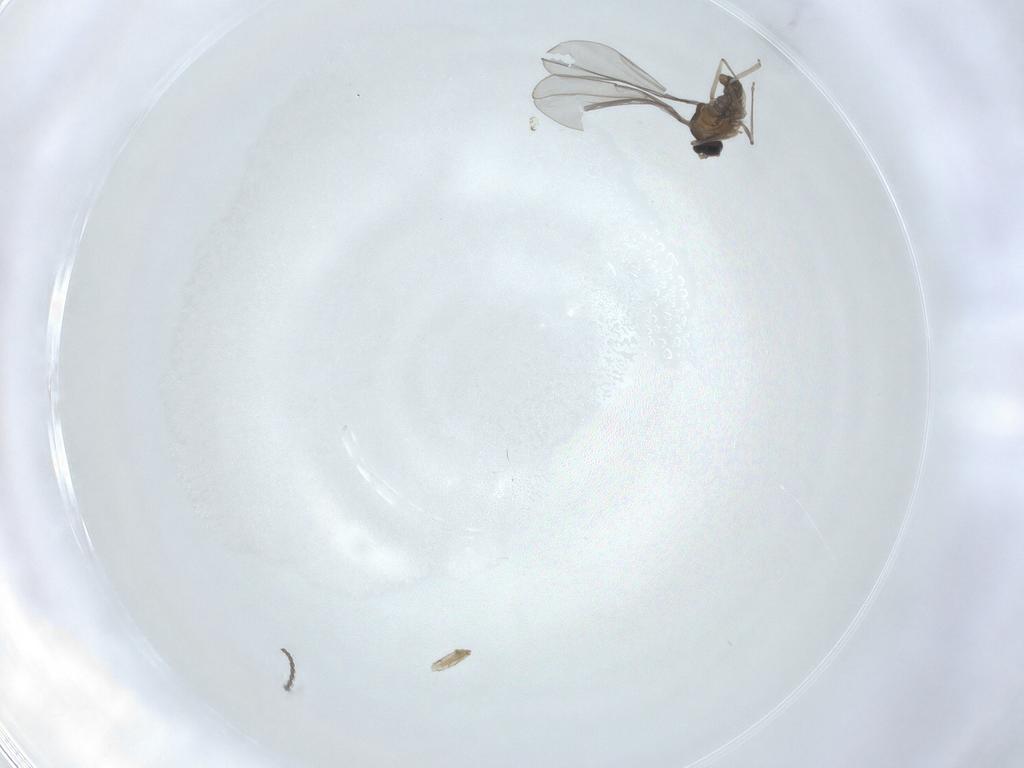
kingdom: Animalia
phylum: Arthropoda
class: Insecta
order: Diptera
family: Cecidomyiidae
